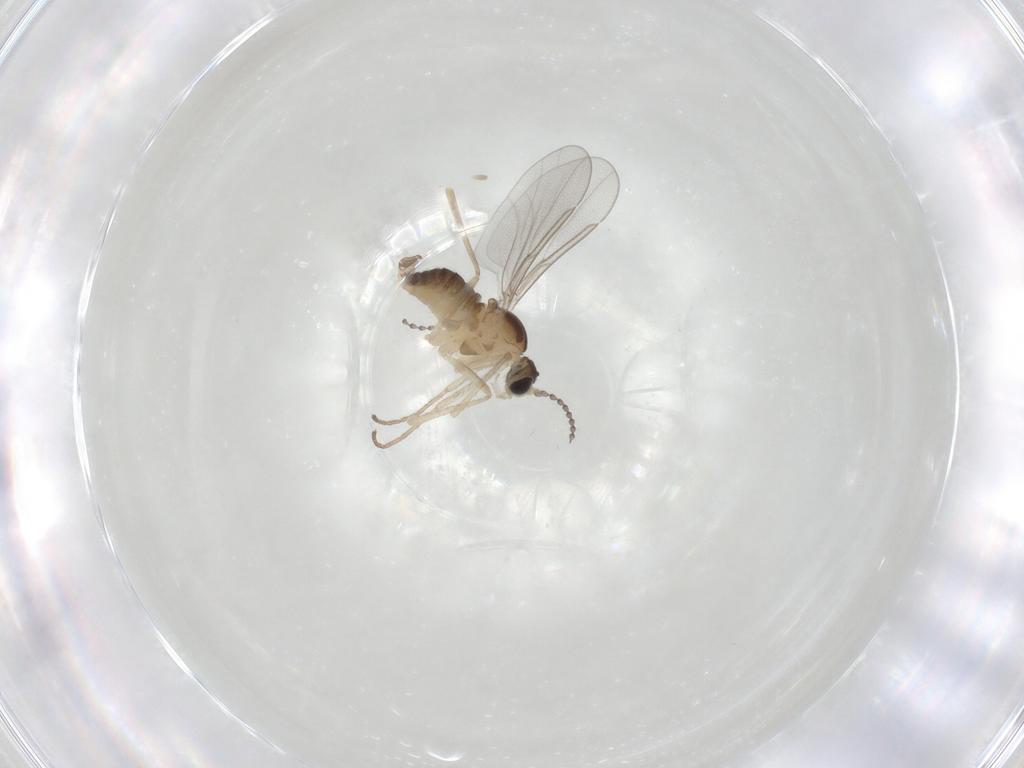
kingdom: Animalia
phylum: Arthropoda
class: Insecta
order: Diptera
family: Cecidomyiidae
